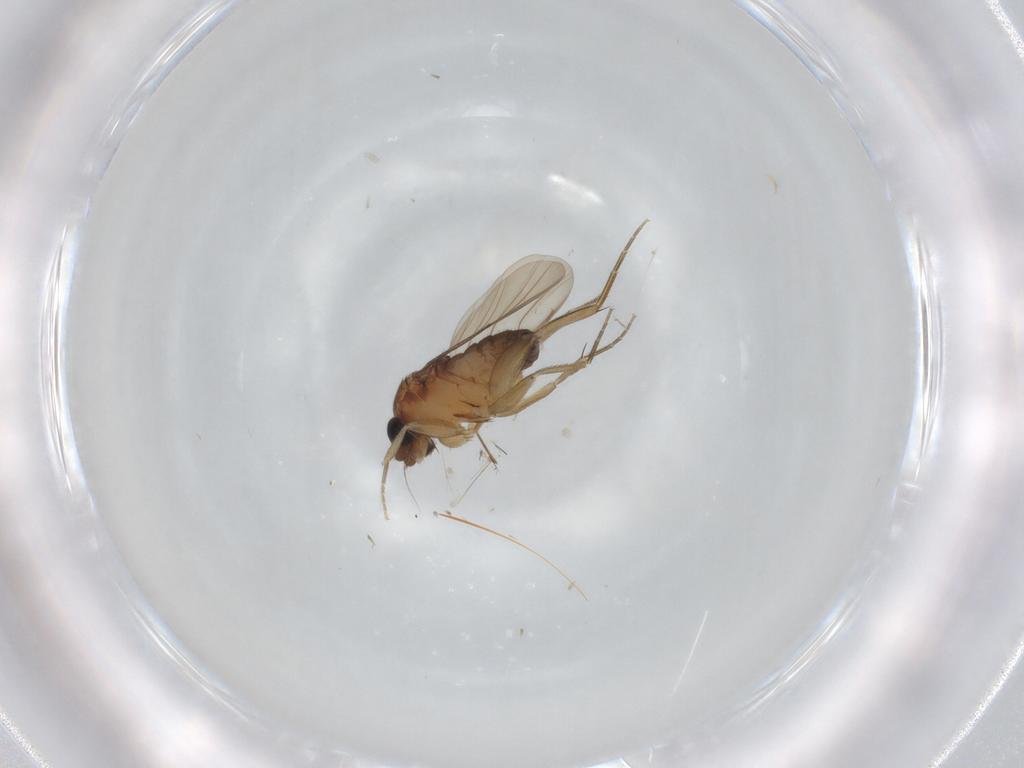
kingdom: Animalia
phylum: Arthropoda
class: Insecta
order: Diptera
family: Phoridae
